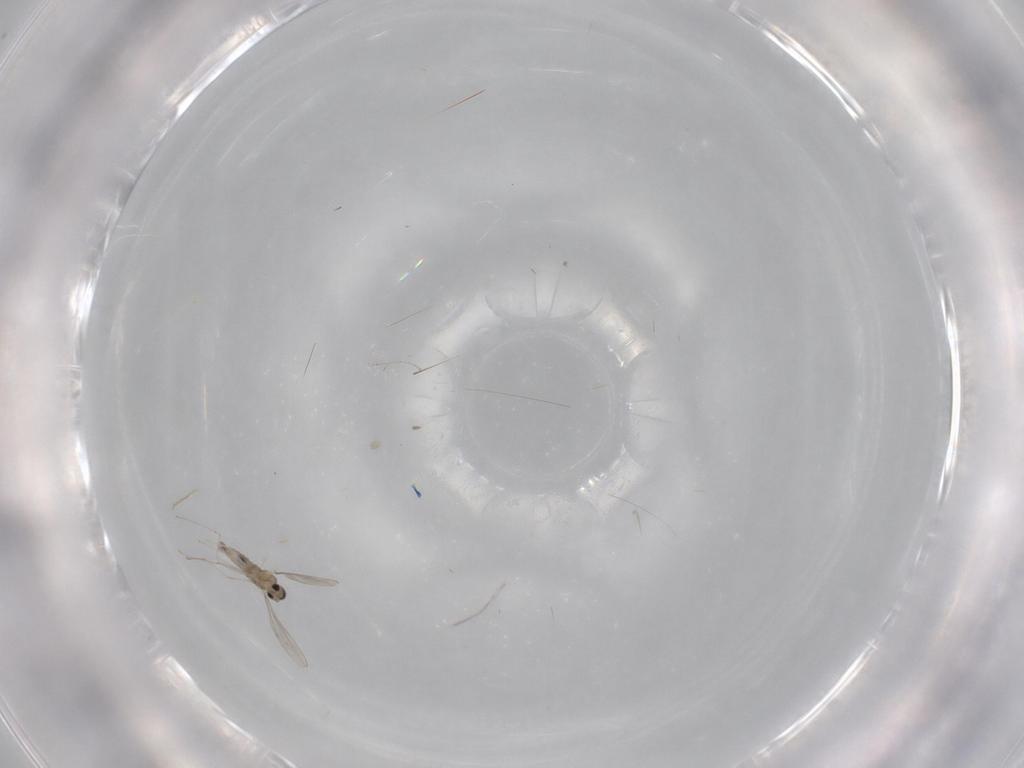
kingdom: Animalia
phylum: Arthropoda
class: Insecta
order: Diptera
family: Cecidomyiidae
